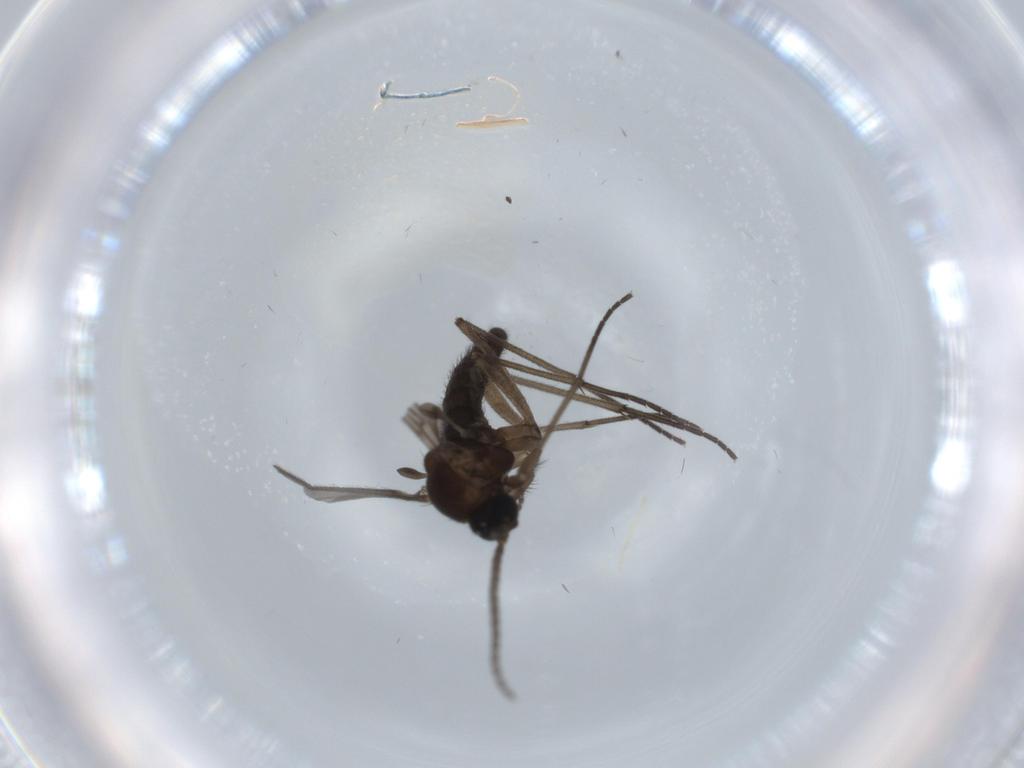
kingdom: Animalia
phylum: Arthropoda
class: Insecta
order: Diptera
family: Sciaridae
